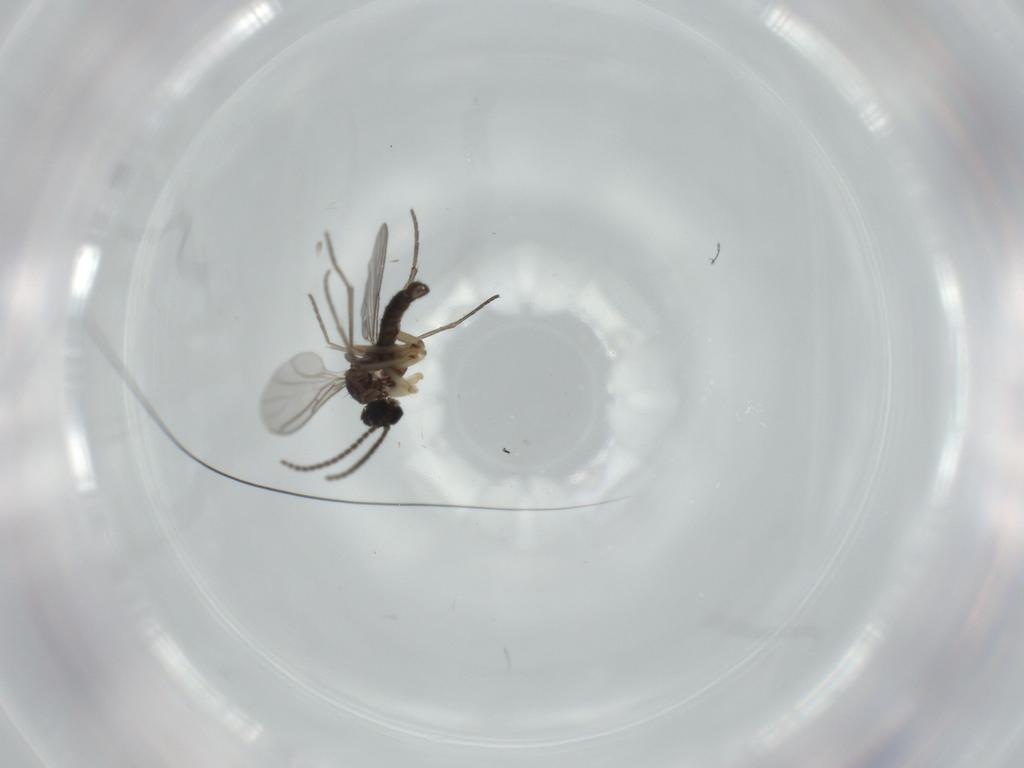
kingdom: Animalia
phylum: Arthropoda
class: Insecta
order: Diptera
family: Sciaridae
